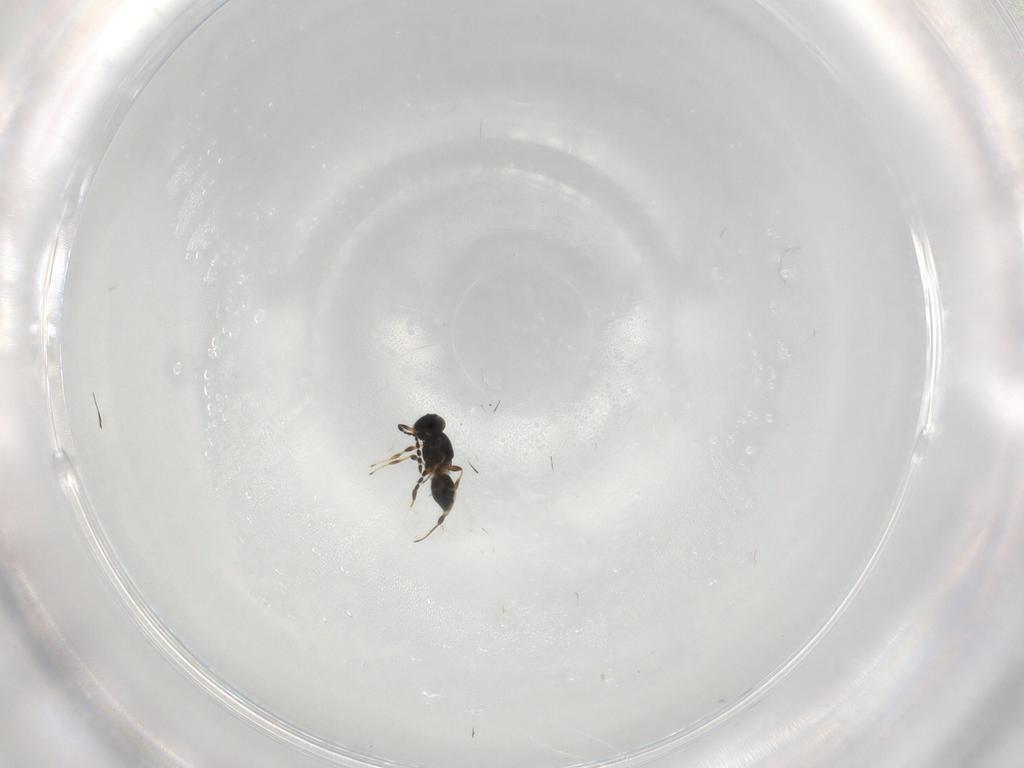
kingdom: Animalia
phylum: Arthropoda
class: Insecta
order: Hymenoptera
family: Platygastridae
